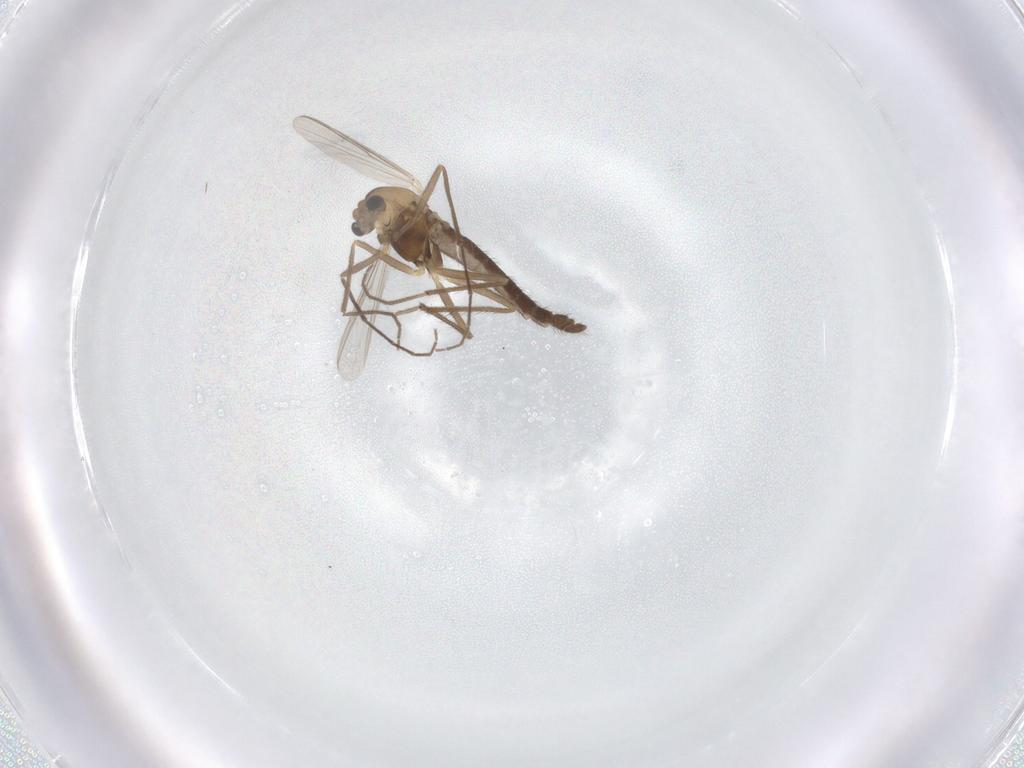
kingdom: Animalia
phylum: Arthropoda
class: Insecta
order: Diptera
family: Chironomidae
